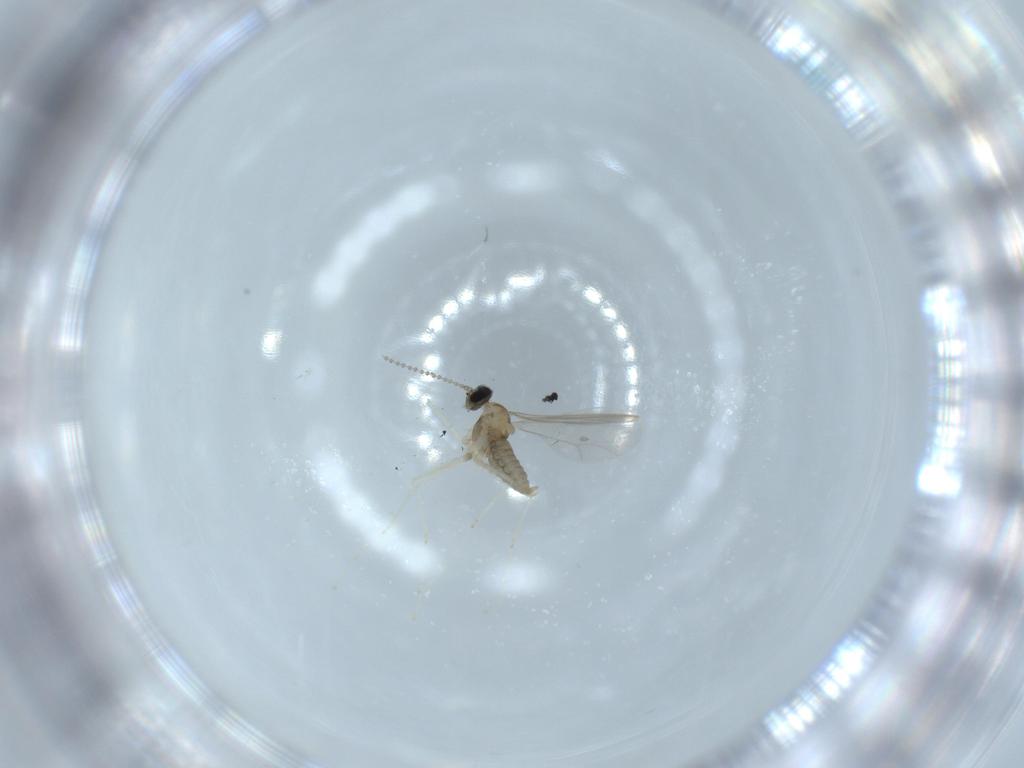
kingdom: Animalia
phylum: Arthropoda
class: Insecta
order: Diptera
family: Cecidomyiidae
